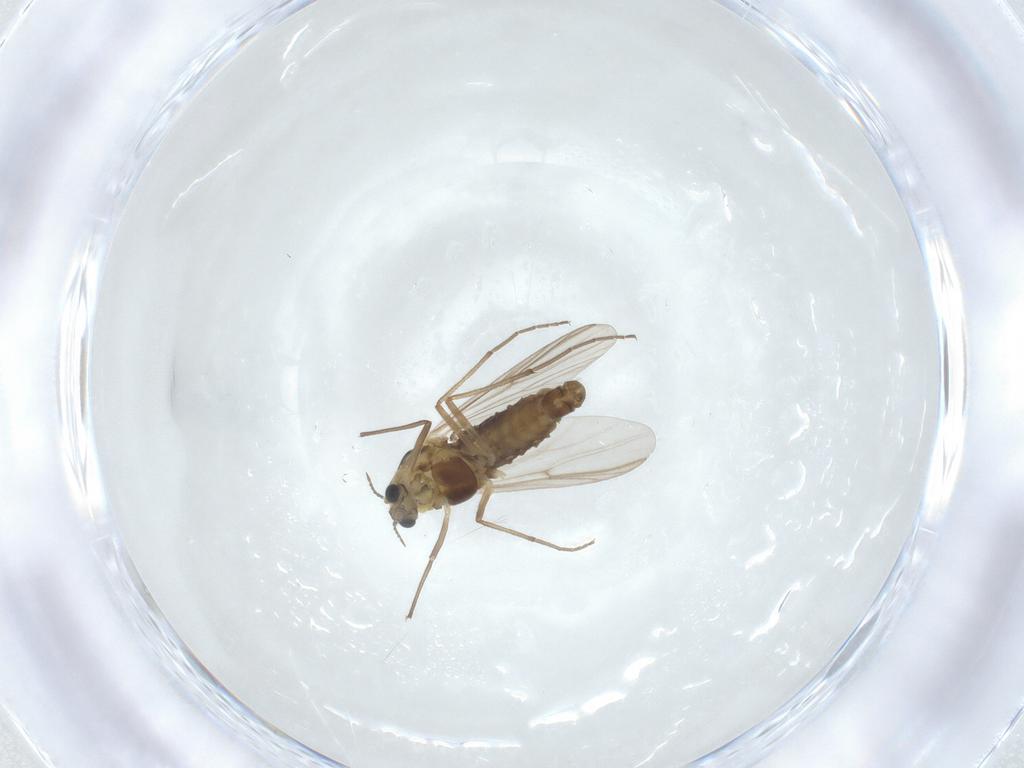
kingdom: Animalia
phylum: Arthropoda
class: Insecta
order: Diptera
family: Chironomidae
